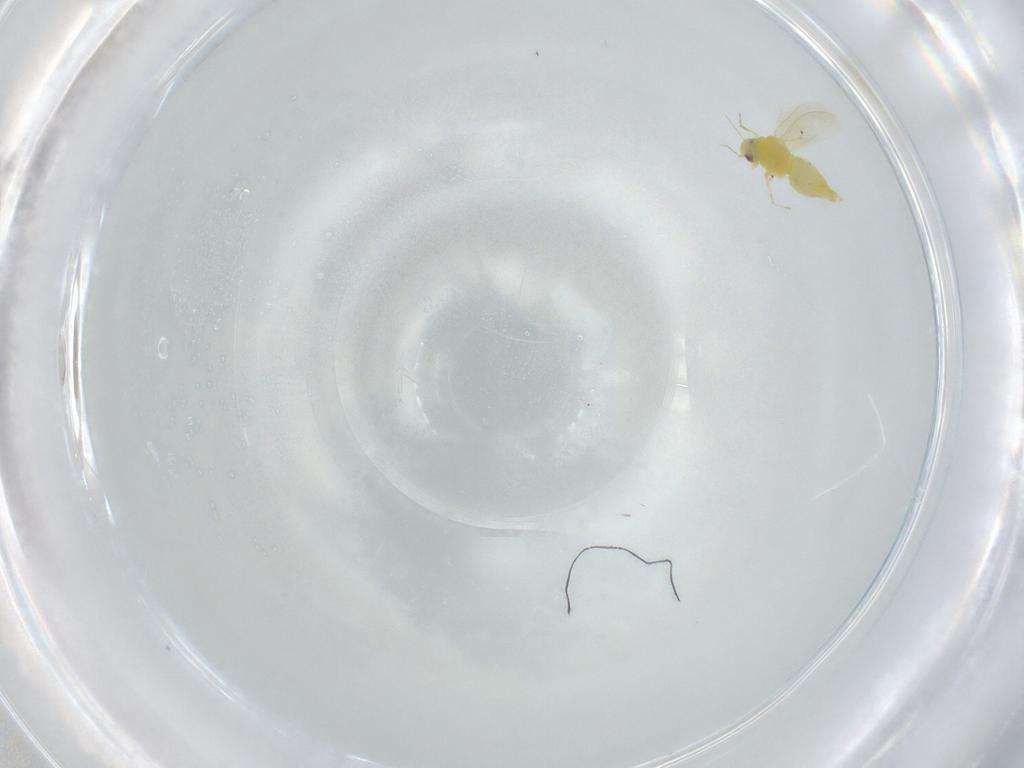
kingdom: Animalia
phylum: Arthropoda
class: Insecta
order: Hemiptera
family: Aleyrodidae
